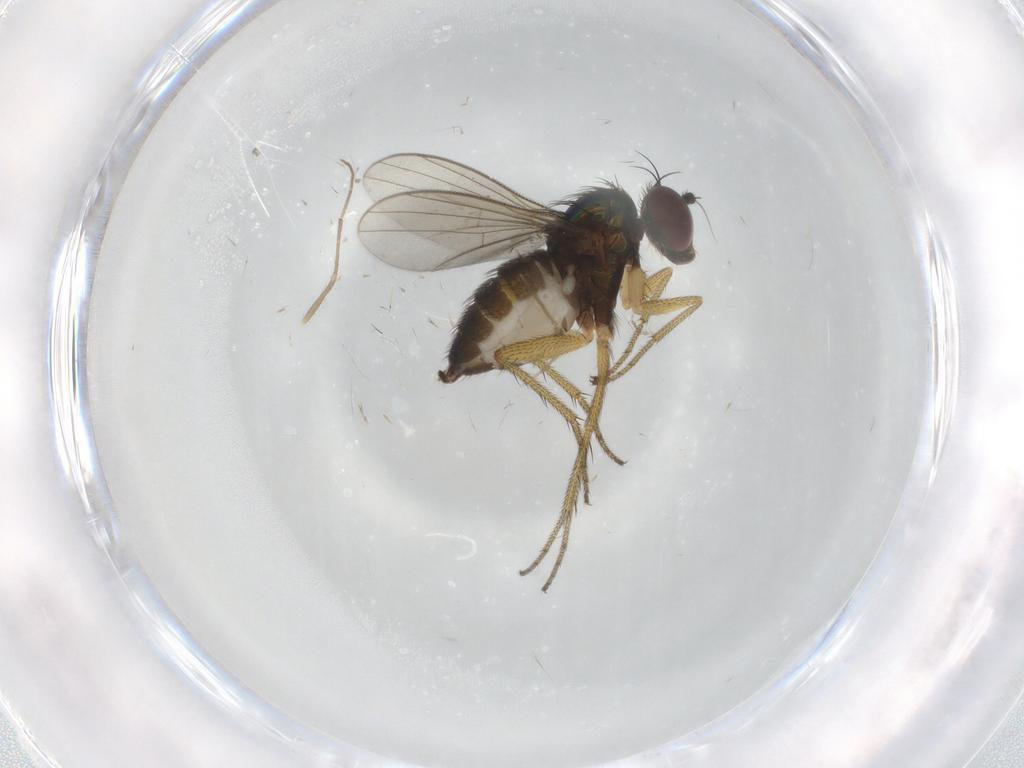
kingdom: Animalia
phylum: Arthropoda
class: Insecta
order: Diptera
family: Chironomidae
